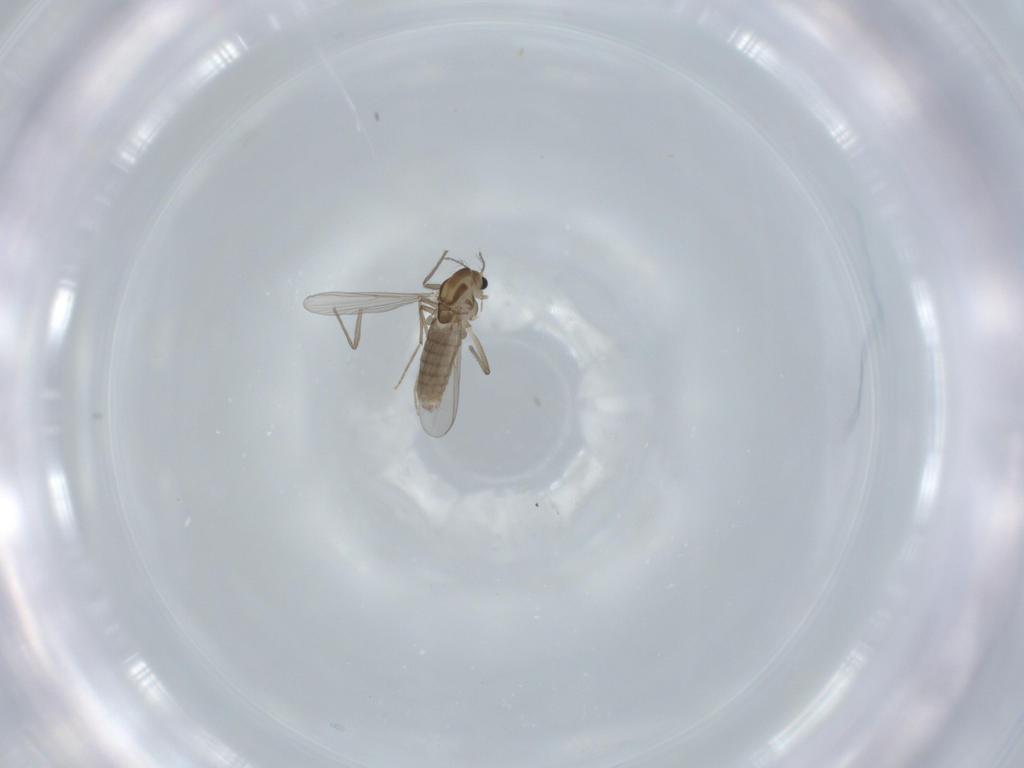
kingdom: Animalia
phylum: Arthropoda
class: Insecta
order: Diptera
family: Chironomidae
